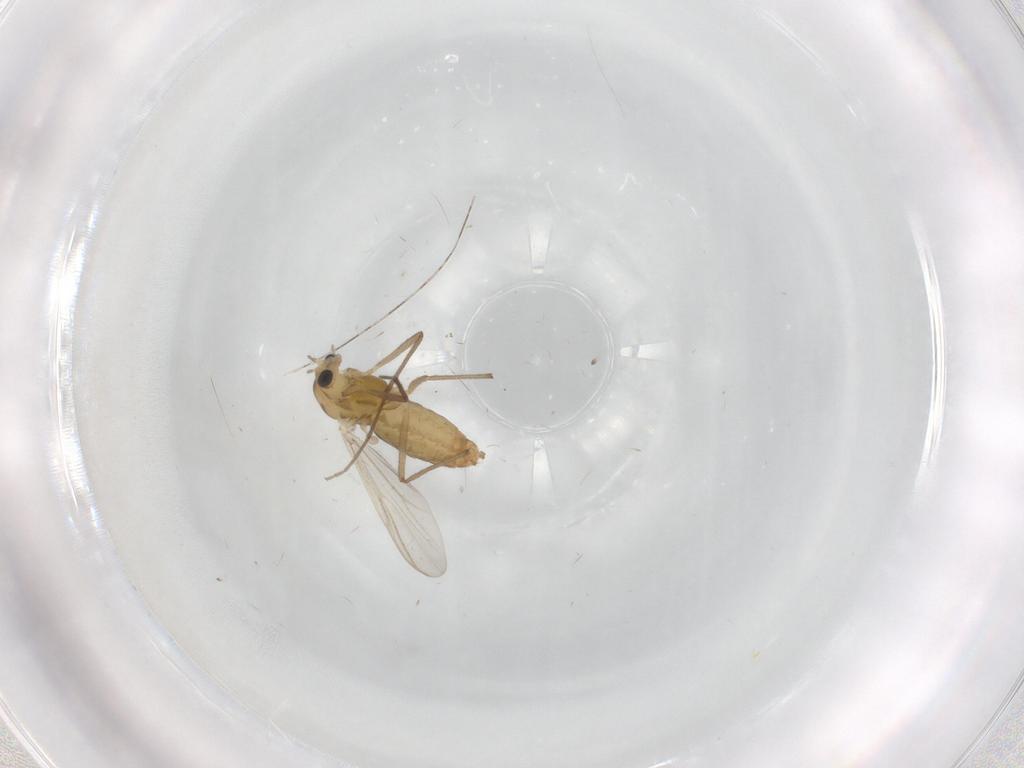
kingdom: Animalia
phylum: Arthropoda
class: Insecta
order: Diptera
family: Chironomidae
